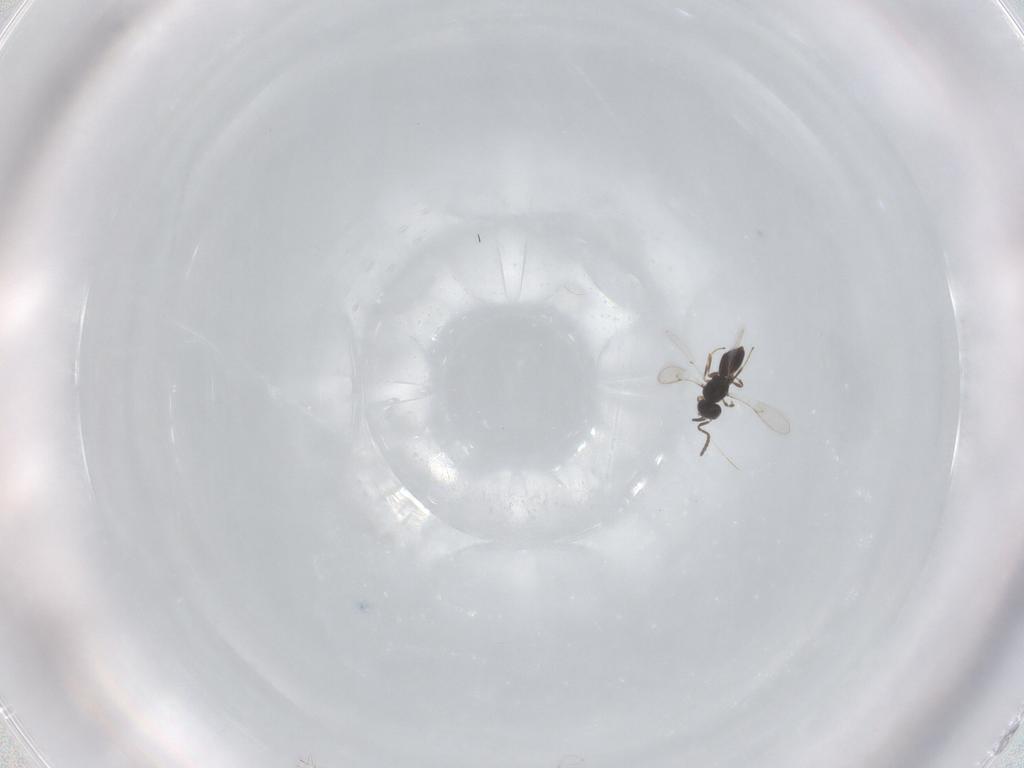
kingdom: Animalia
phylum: Arthropoda
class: Insecta
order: Hymenoptera
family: Scelionidae
